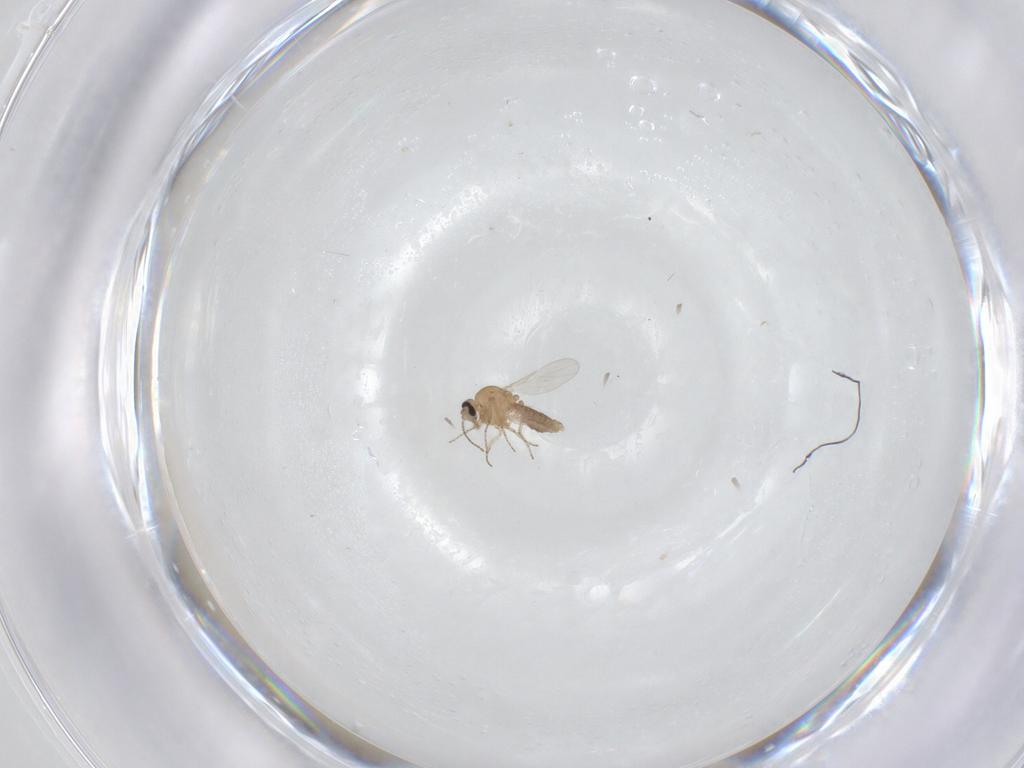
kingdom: Animalia
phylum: Arthropoda
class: Insecta
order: Diptera
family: Ceratopogonidae
